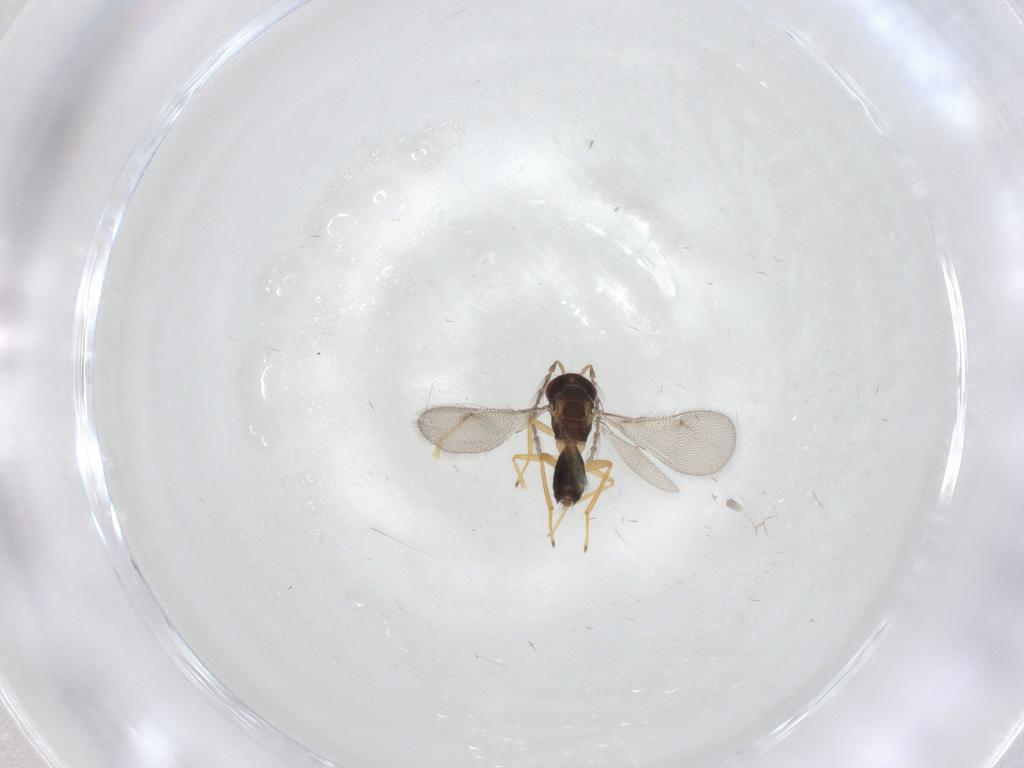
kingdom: Animalia
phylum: Arthropoda
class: Insecta
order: Hymenoptera
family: Eulophidae
